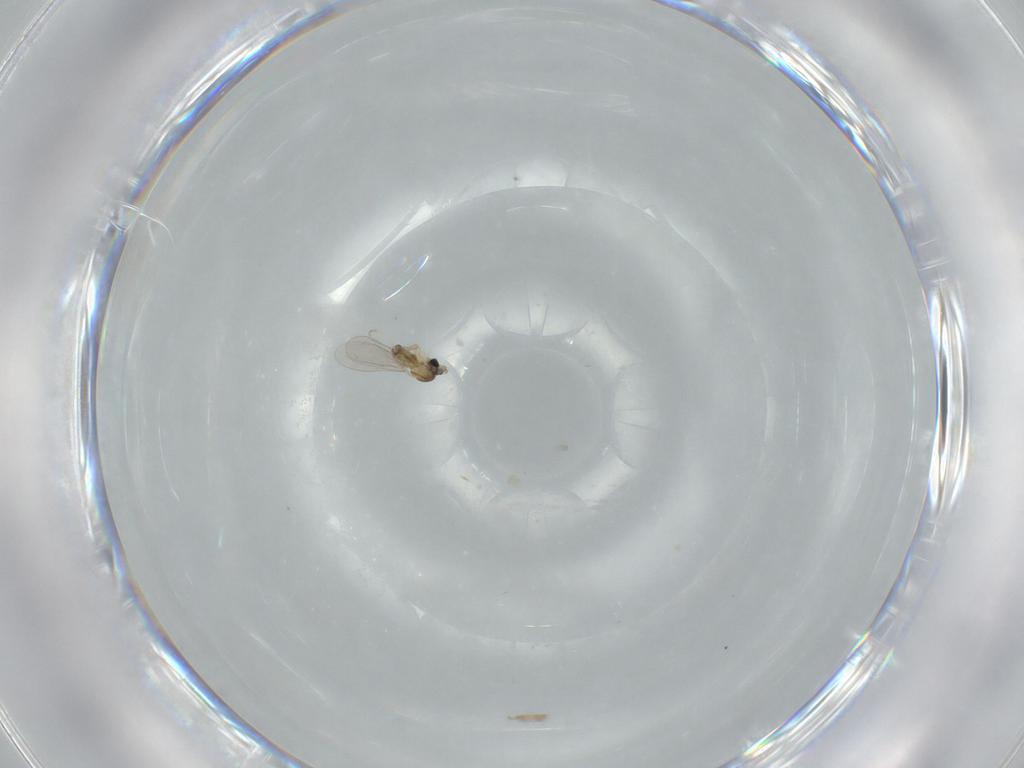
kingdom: Animalia
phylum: Arthropoda
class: Insecta
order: Diptera
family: Cecidomyiidae
